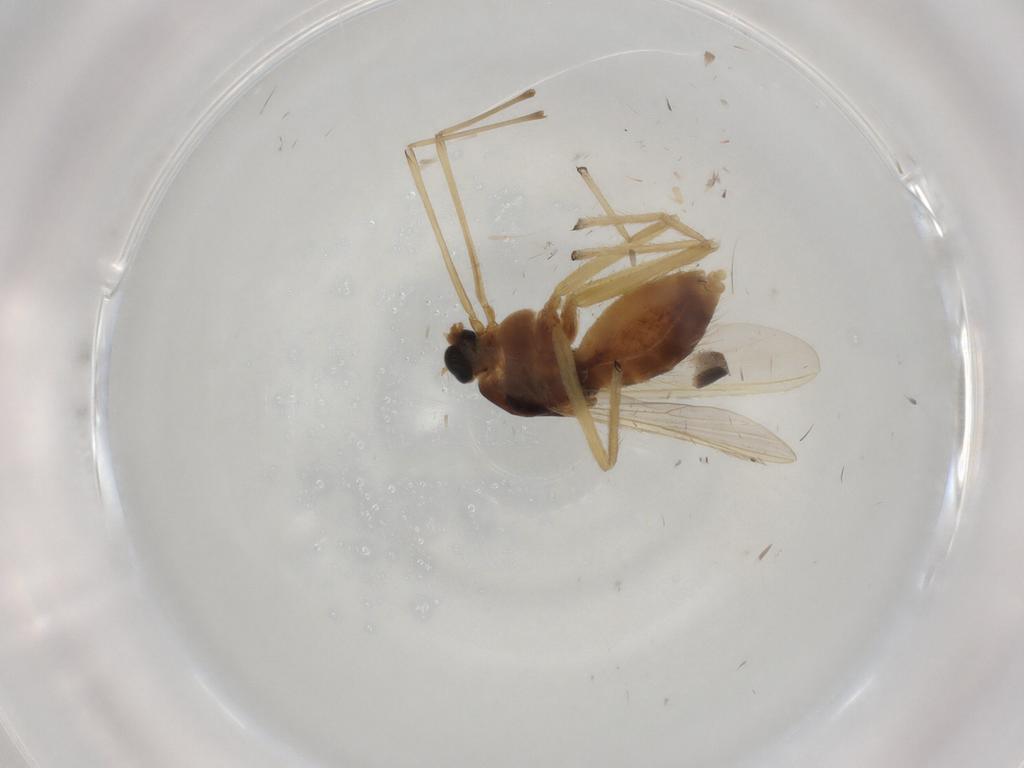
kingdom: Animalia
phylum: Arthropoda
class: Insecta
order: Diptera
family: Chironomidae
